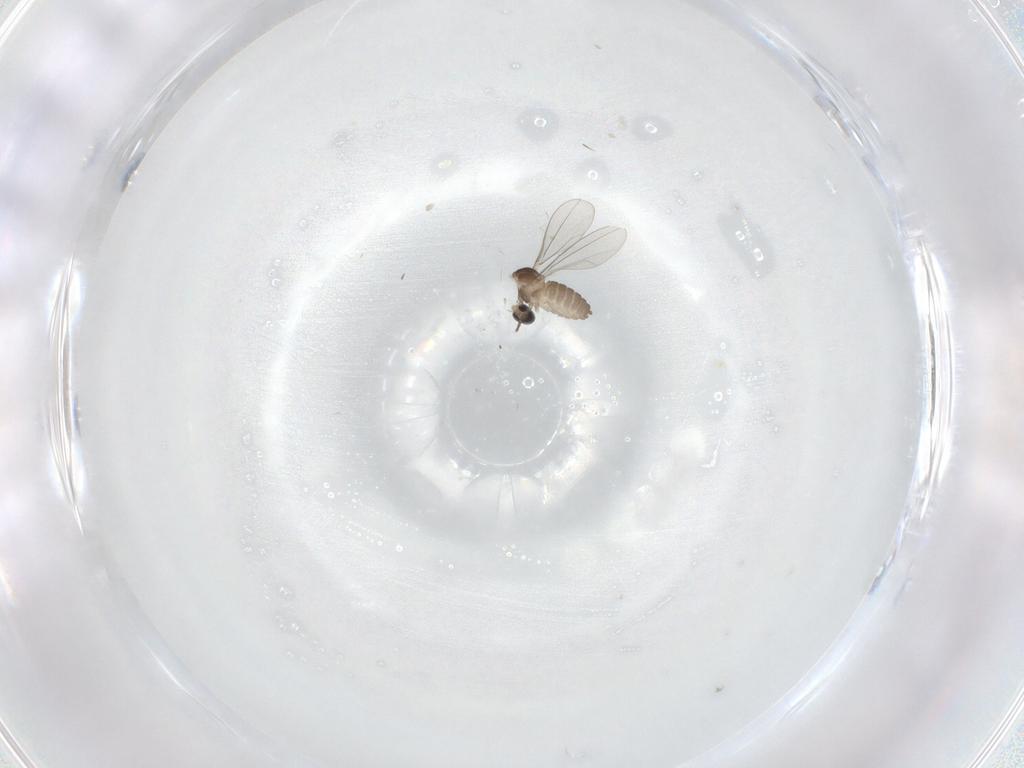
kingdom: Animalia
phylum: Arthropoda
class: Insecta
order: Diptera
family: Cecidomyiidae
